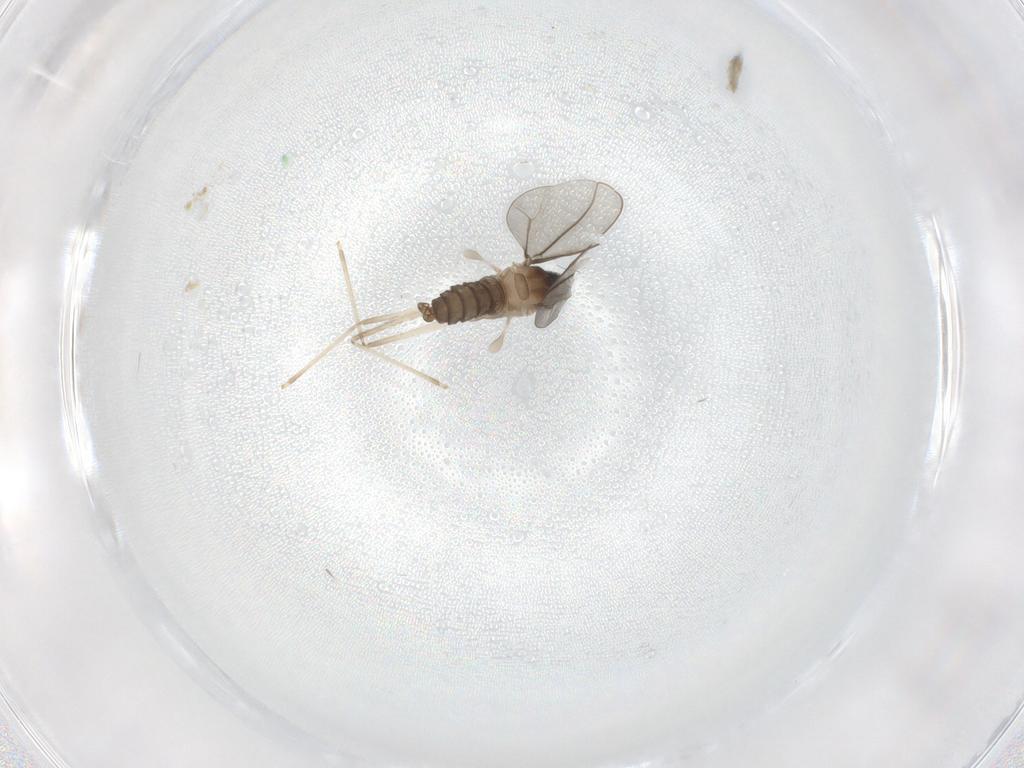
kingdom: Animalia
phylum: Arthropoda
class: Insecta
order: Diptera
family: Cecidomyiidae
